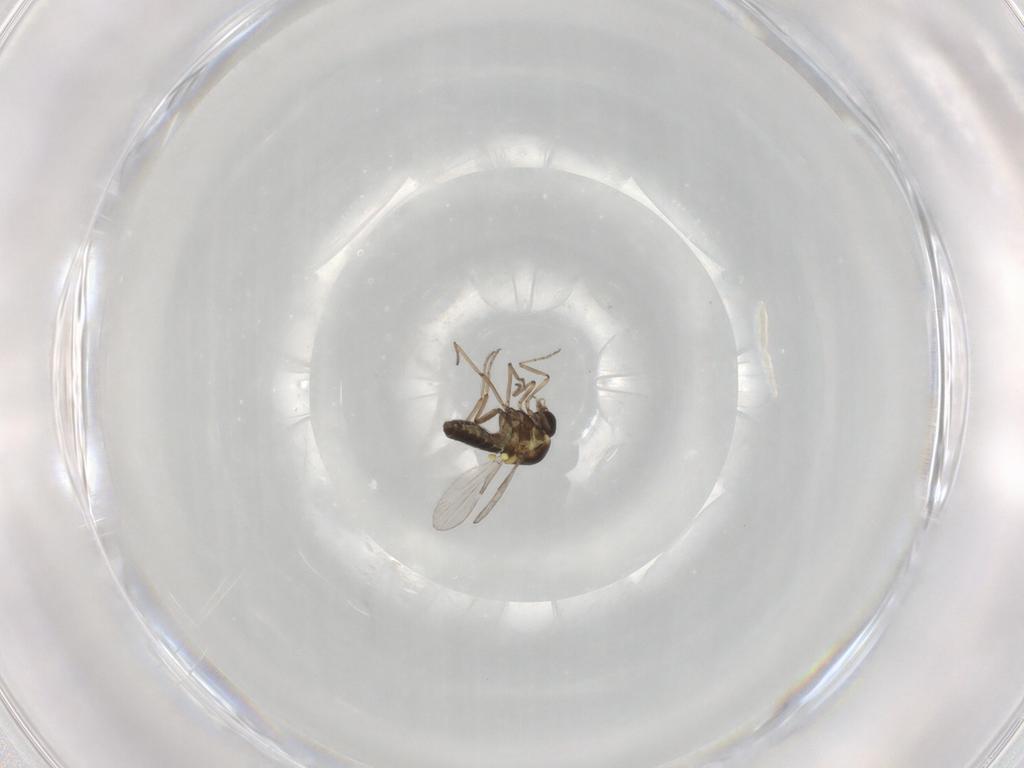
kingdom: Animalia
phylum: Arthropoda
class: Insecta
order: Diptera
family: Ceratopogonidae
